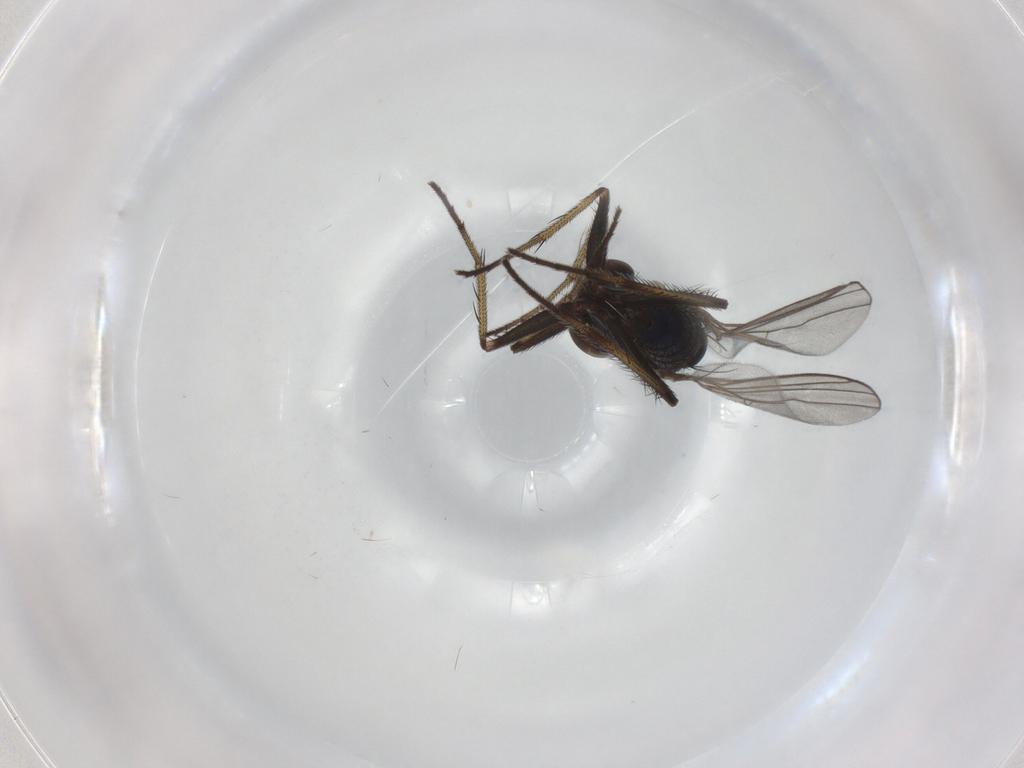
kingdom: Animalia
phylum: Arthropoda
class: Insecta
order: Diptera
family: Dolichopodidae
